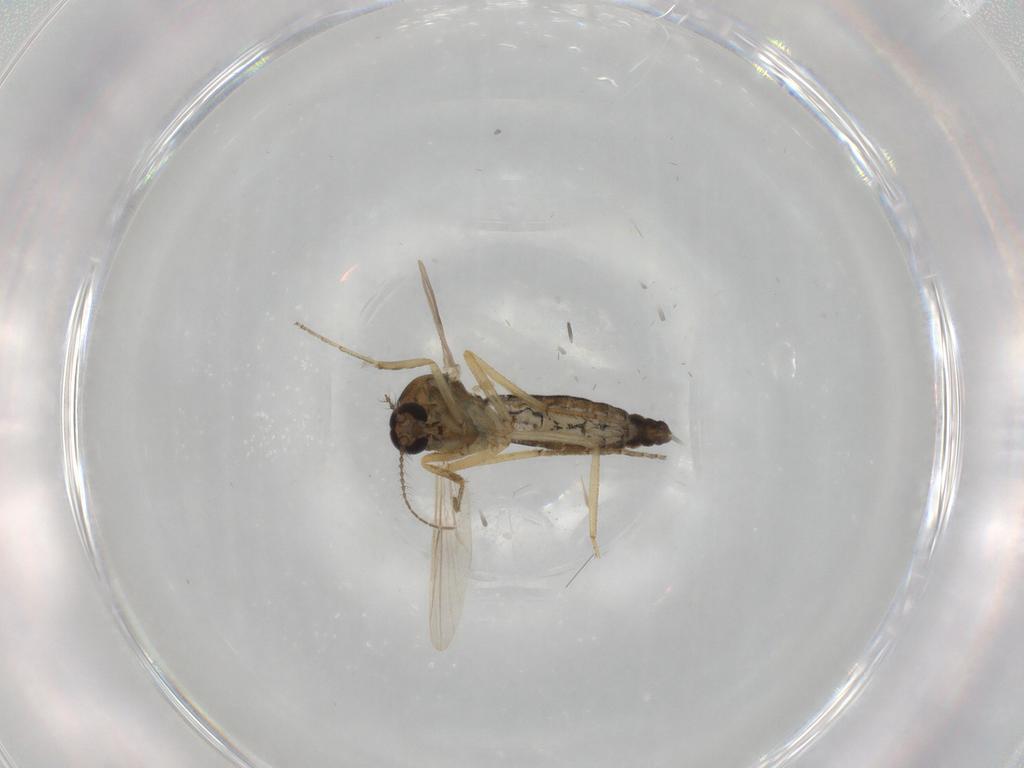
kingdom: Animalia
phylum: Arthropoda
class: Insecta
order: Diptera
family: Ceratopogonidae
